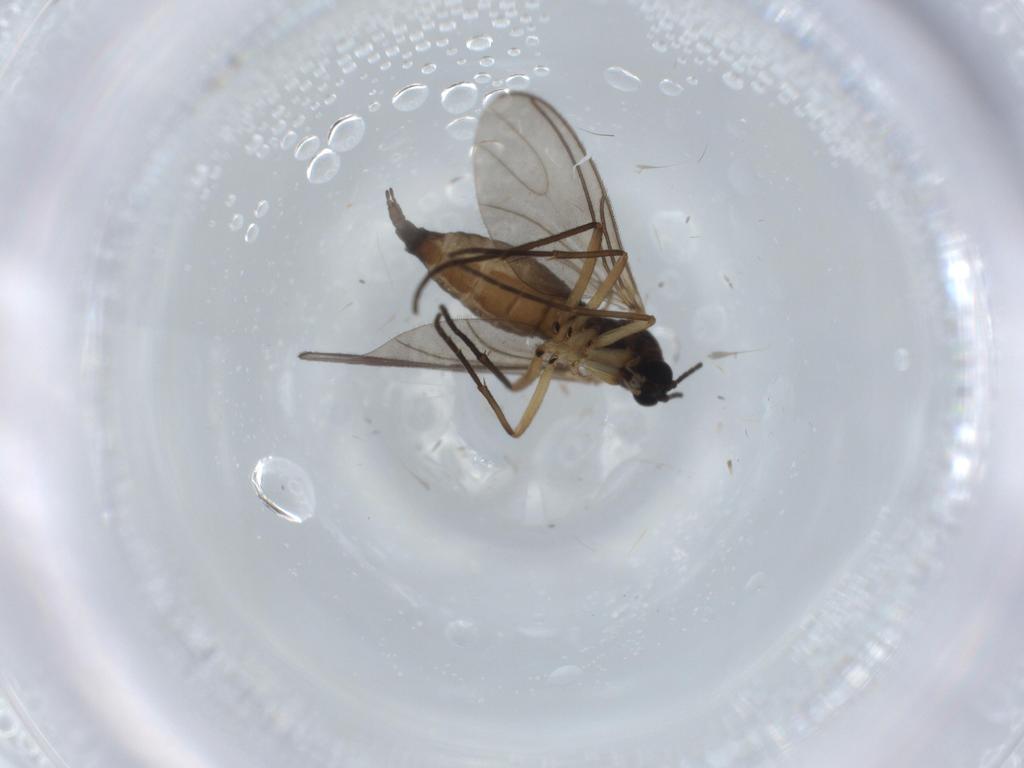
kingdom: Animalia
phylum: Arthropoda
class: Insecta
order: Diptera
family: Sciaridae
